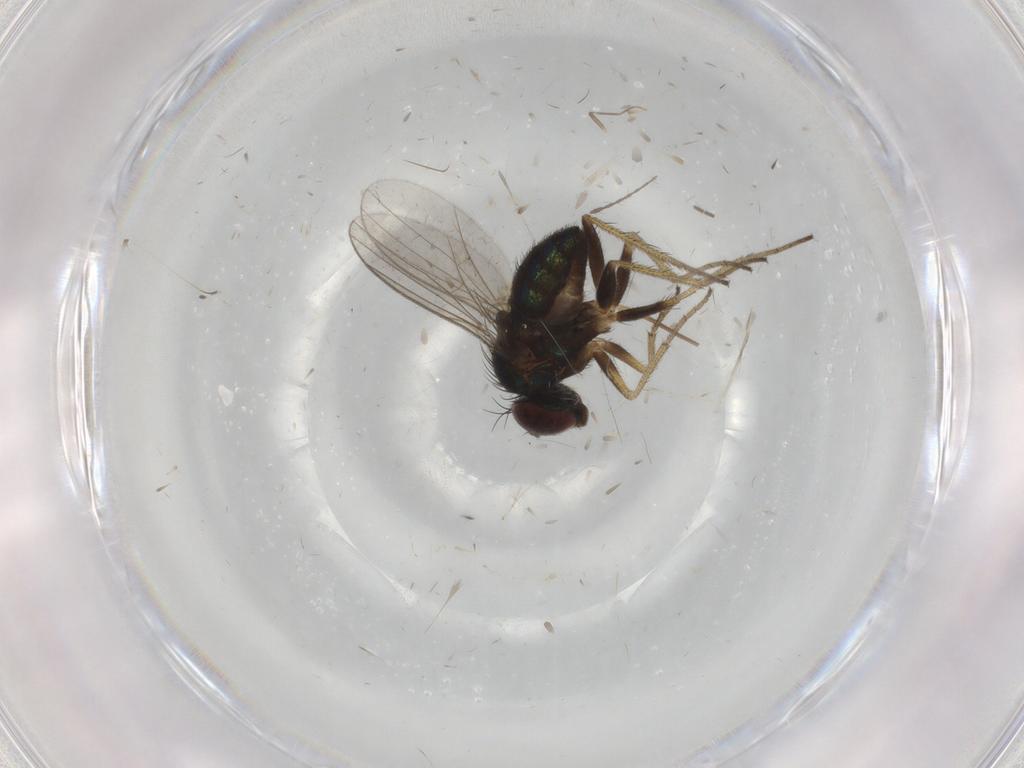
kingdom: Animalia
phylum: Arthropoda
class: Insecta
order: Diptera
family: Chironomidae
